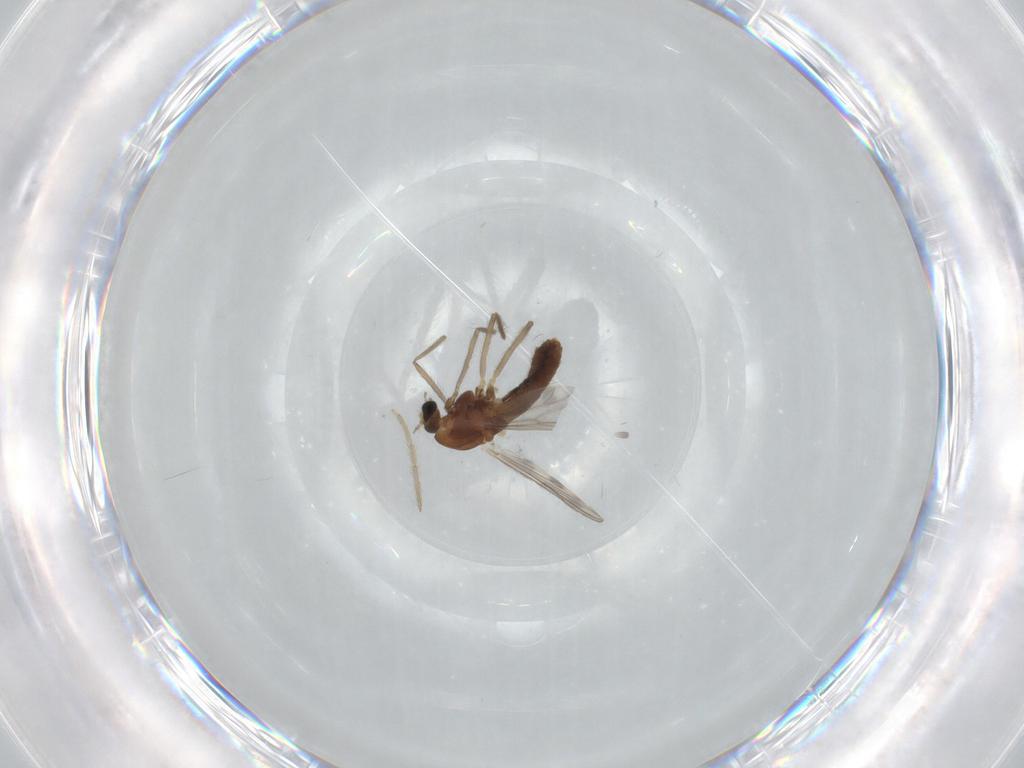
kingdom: Animalia
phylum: Arthropoda
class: Insecta
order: Diptera
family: Chironomidae
